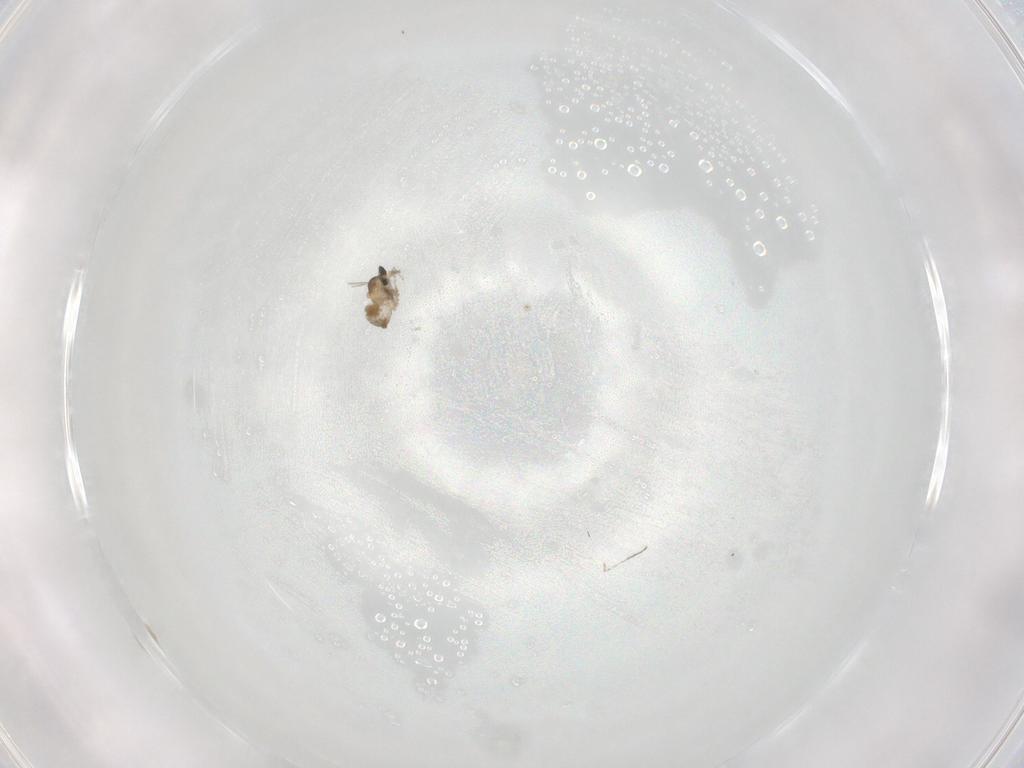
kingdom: Animalia
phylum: Arthropoda
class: Insecta
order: Diptera
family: Cecidomyiidae
